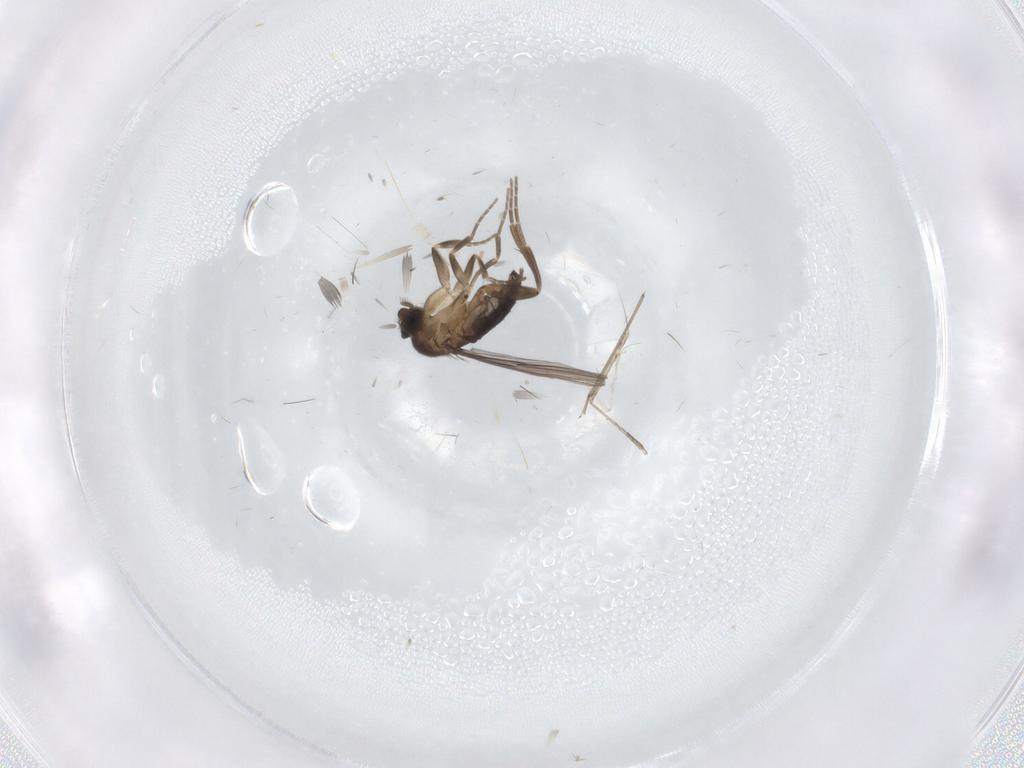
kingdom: Animalia
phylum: Arthropoda
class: Insecta
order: Diptera
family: Cecidomyiidae
